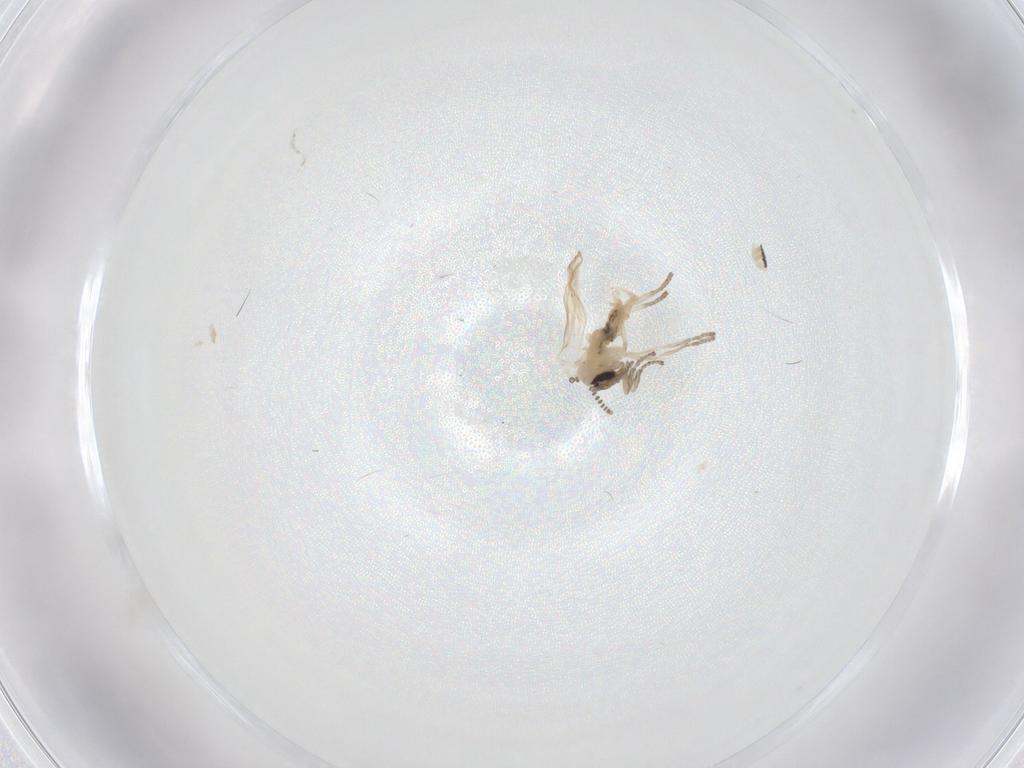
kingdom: Animalia
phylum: Arthropoda
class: Insecta
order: Diptera
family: Psychodidae
